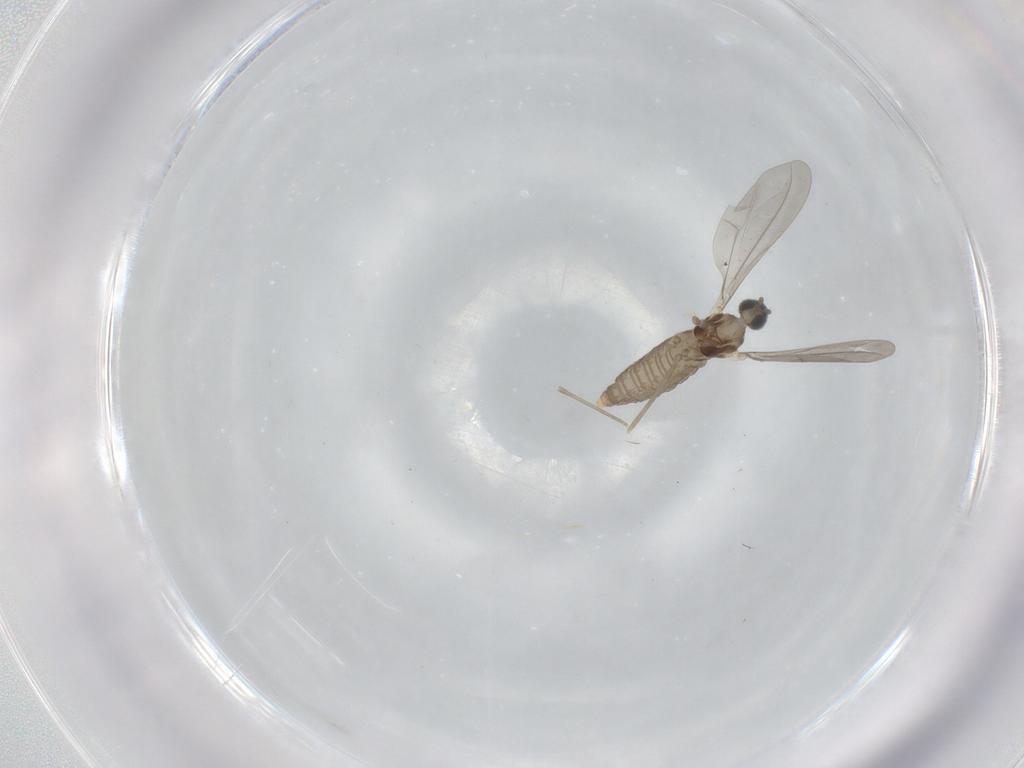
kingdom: Animalia
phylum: Arthropoda
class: Insecta
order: Diptera
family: Cecidomyiidae
